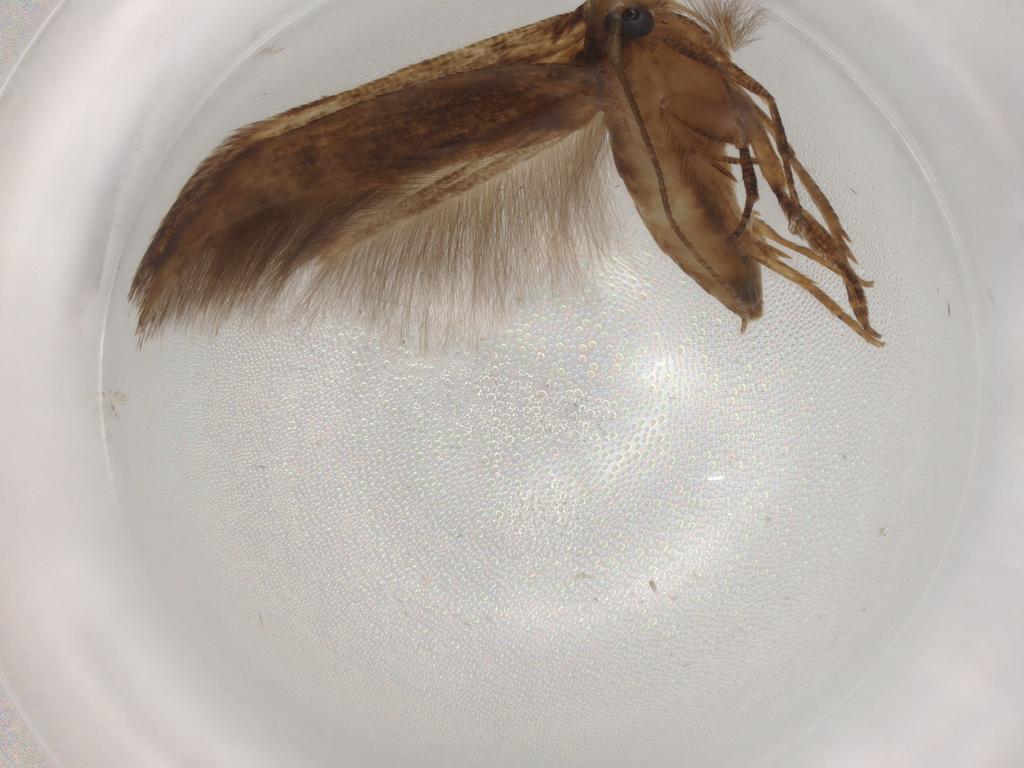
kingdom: Animalia
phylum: Arthropoda
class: Insecta
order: Lepidoptera
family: Cosmopterigidae
